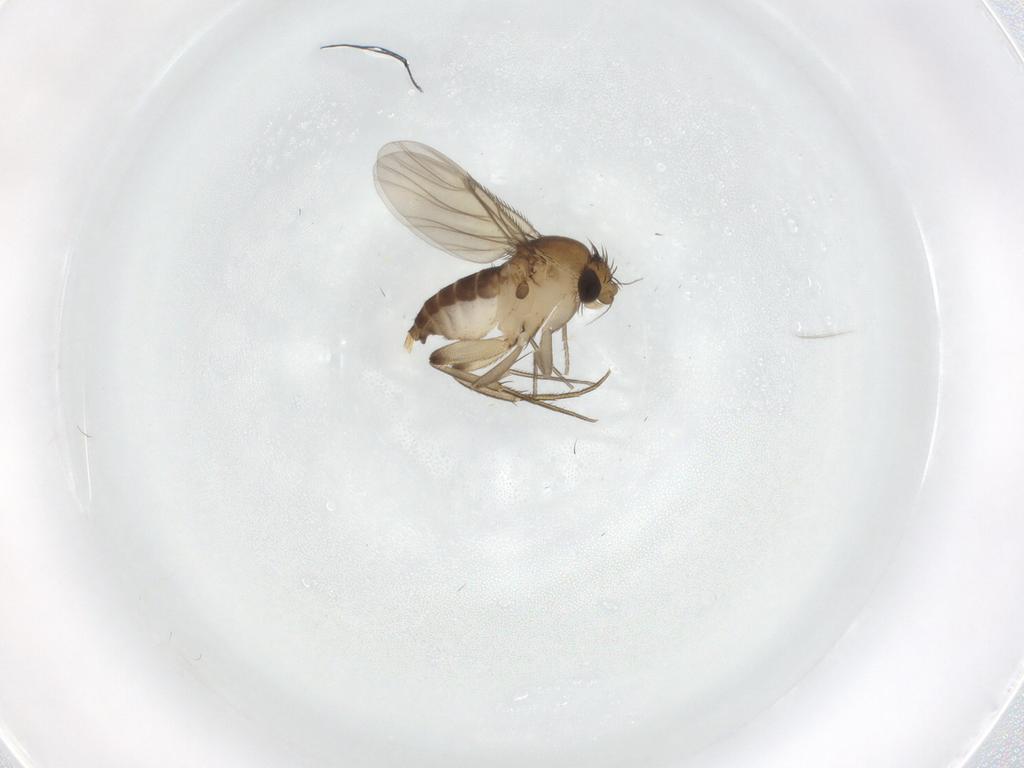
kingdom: Animalia
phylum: Arthropoda
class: Insecta
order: Diptera
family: Phoridae
